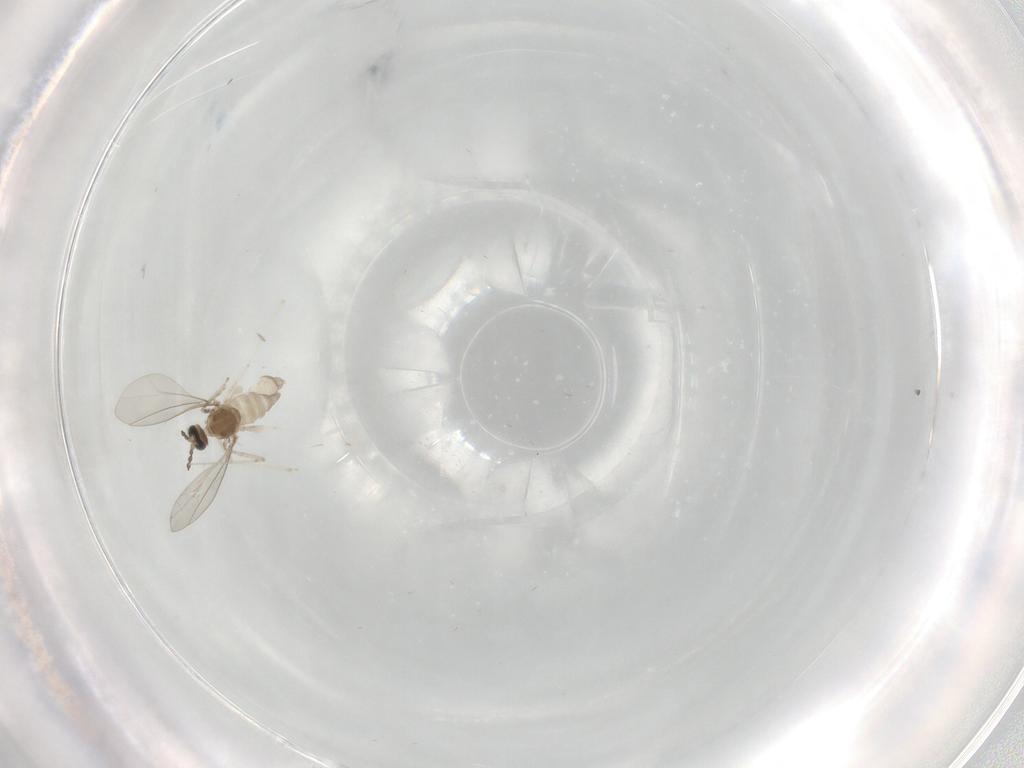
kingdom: Animalia
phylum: Arthropoda
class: Insecta
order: Diptera
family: Cecidomyiidae
